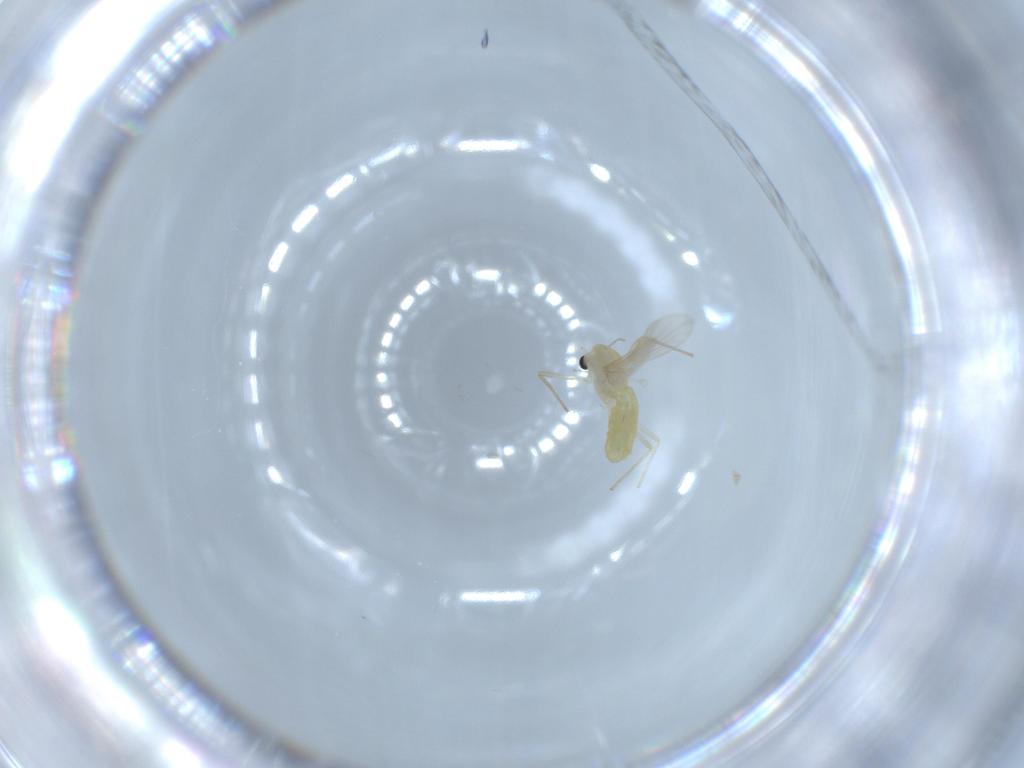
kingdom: Animalia
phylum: Arthropoda
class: Insecta
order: Diptera
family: Chironomidae
